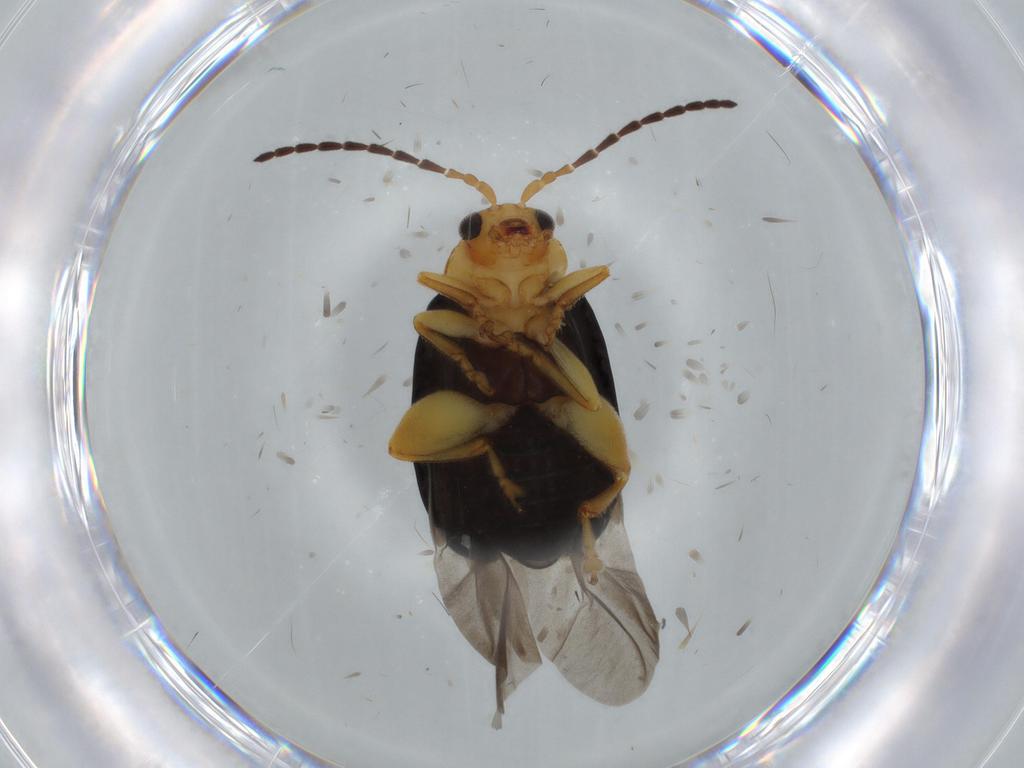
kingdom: Animalia
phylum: Arthropoda
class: Insecta
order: Coleoptera
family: Chrysomelidae
